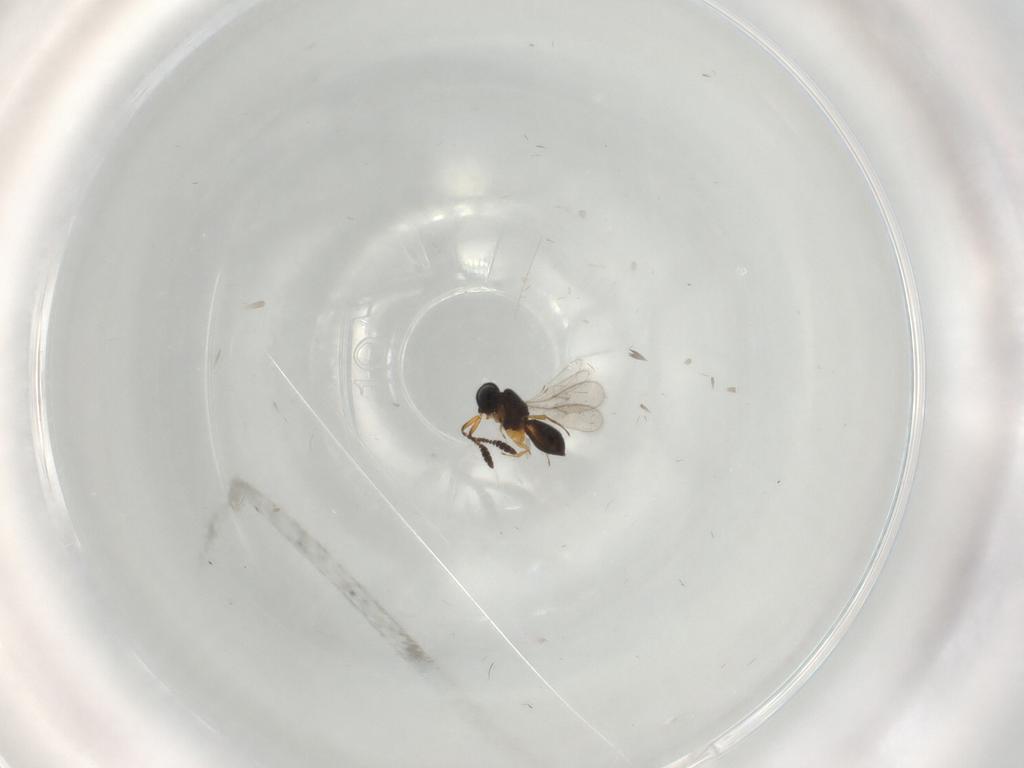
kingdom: Animalia
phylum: Arthropoda
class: Insecta
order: Hymenoptera
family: Scelionidae
